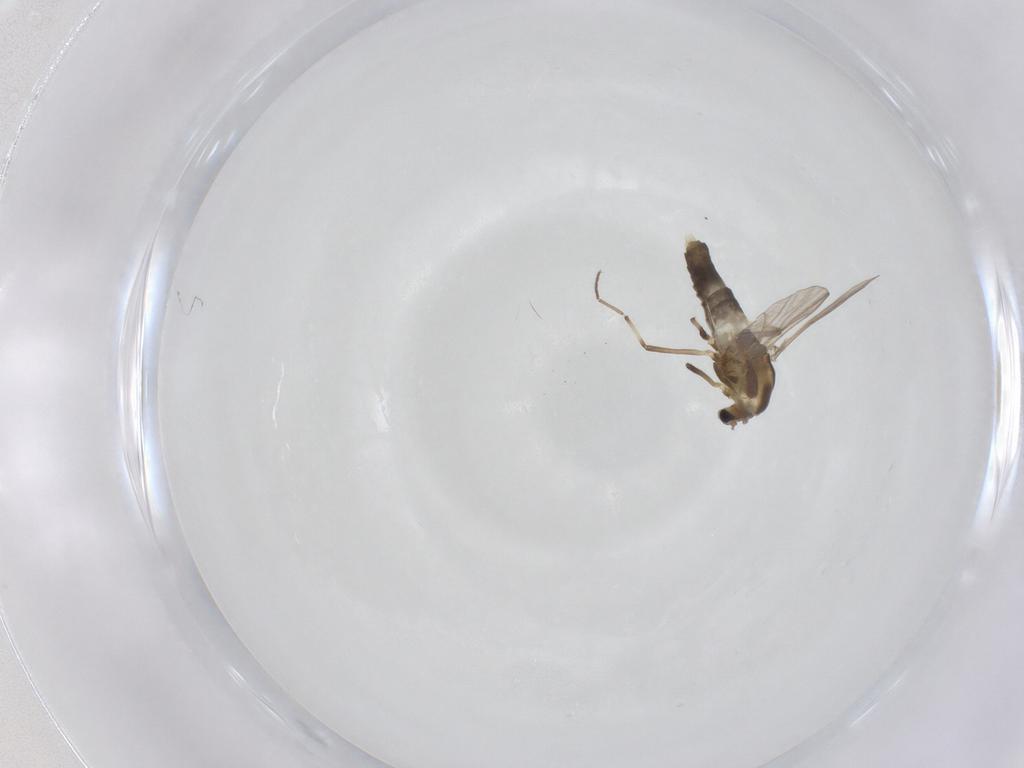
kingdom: Animalia
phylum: Arthropoda
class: Insecta
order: Diptera
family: Chironomidae
